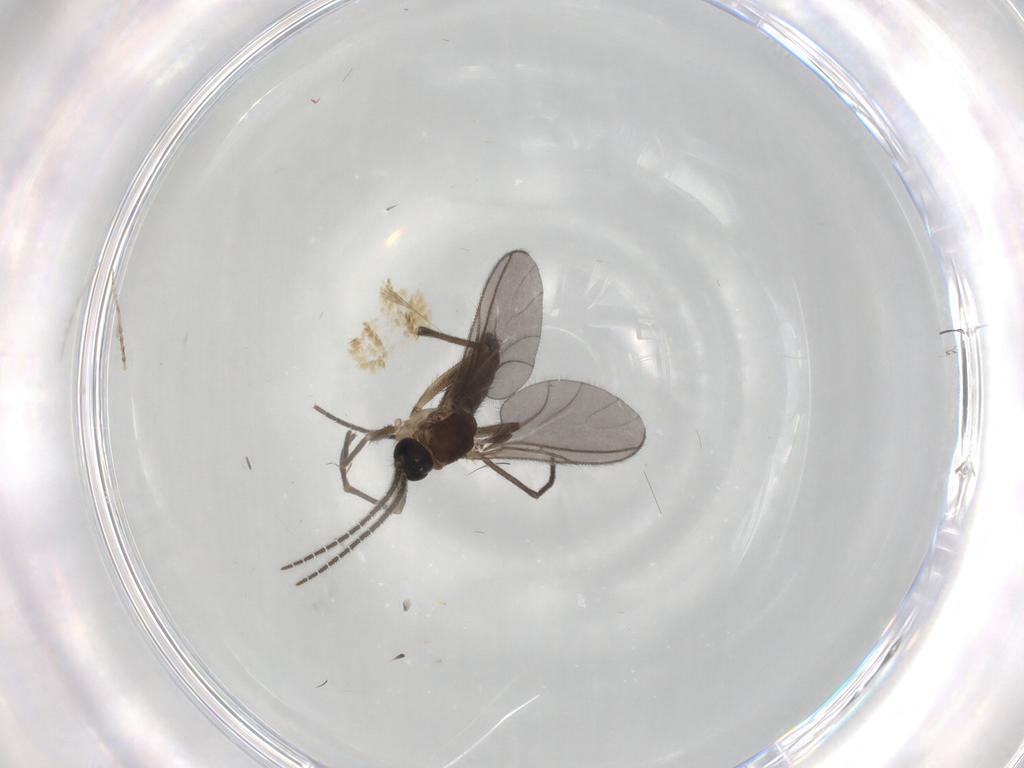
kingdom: Animalia
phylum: Arthropoda
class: Insecta
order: Diptera
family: Sciaridae
